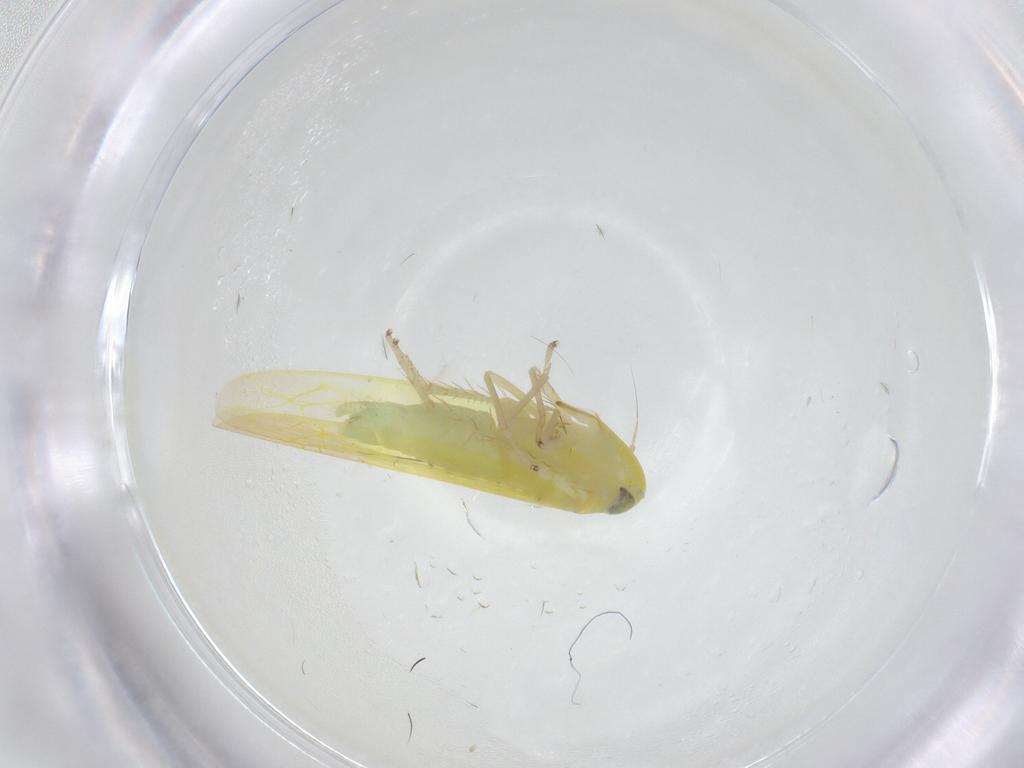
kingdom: Animalia
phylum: Arthropoda
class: Insecta
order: Hemiptera
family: Cicadellidae
